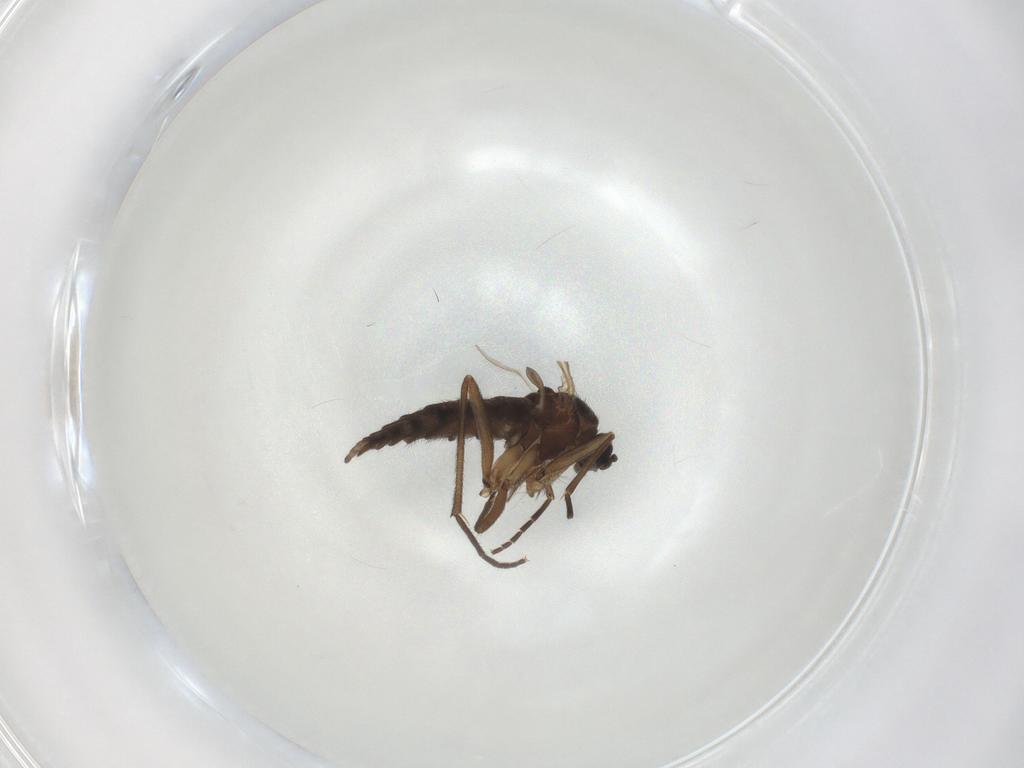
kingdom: Animalia
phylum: Arthropoda
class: Insecta
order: Diptera
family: Sciaridae
